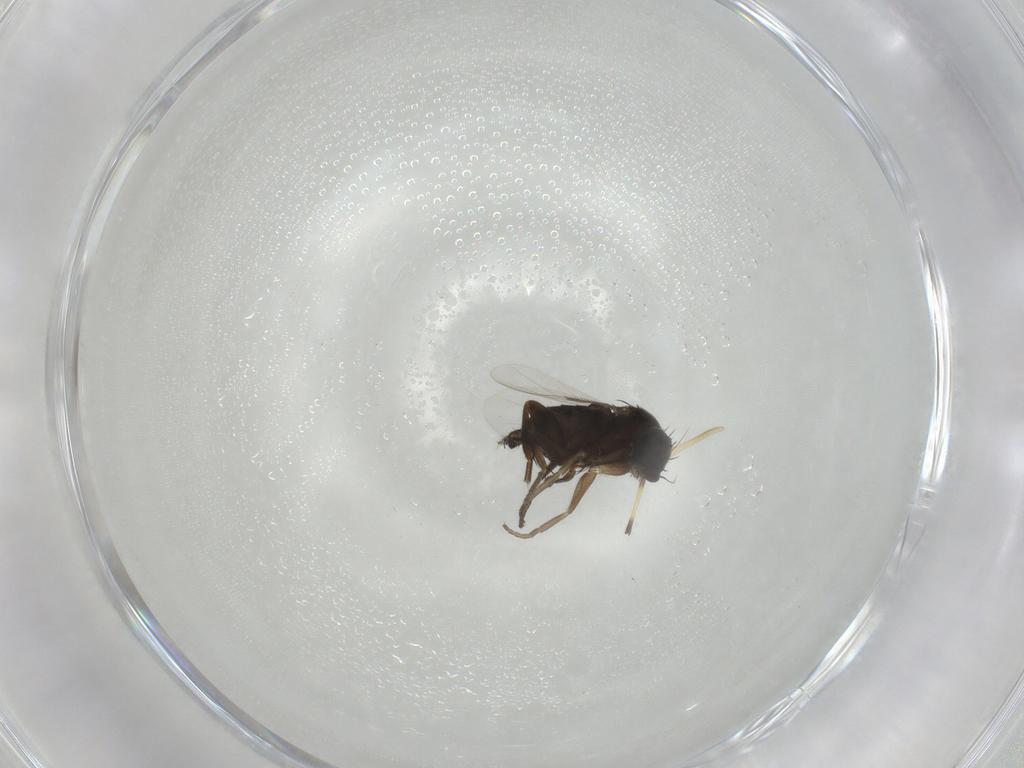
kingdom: Animalia
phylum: Arthropoda
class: Insecta
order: Diptera
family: Phoridae
